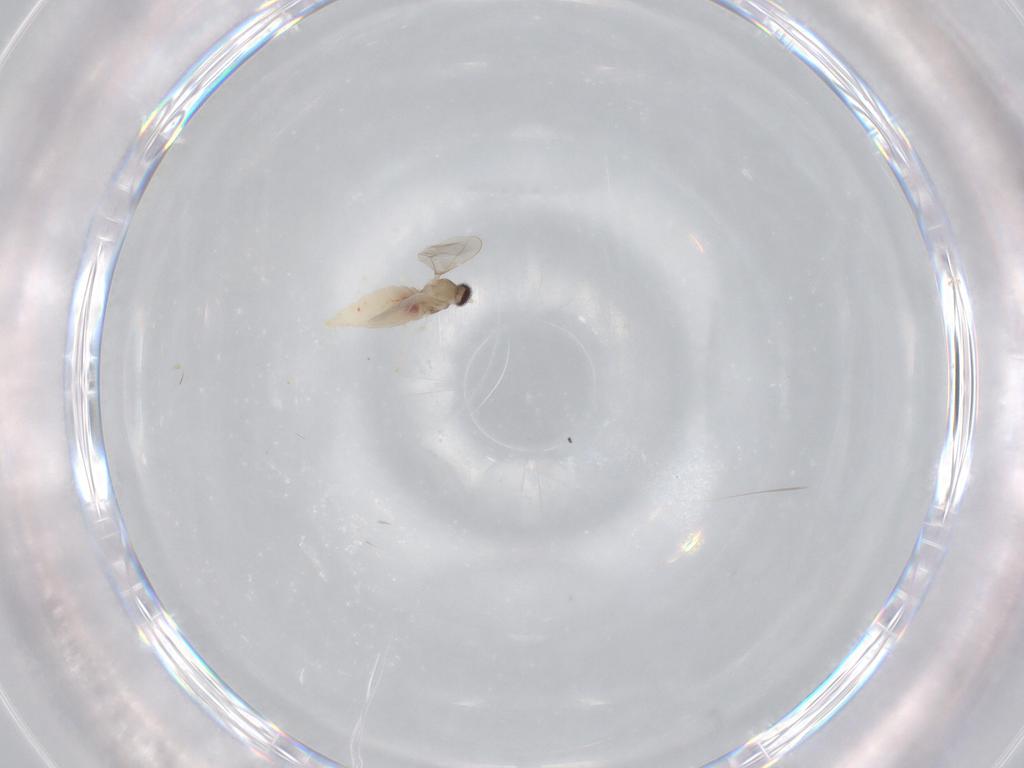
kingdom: Animalia
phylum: Arthropoda
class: Insecta
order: Diptera
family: Cecidomyiidae
